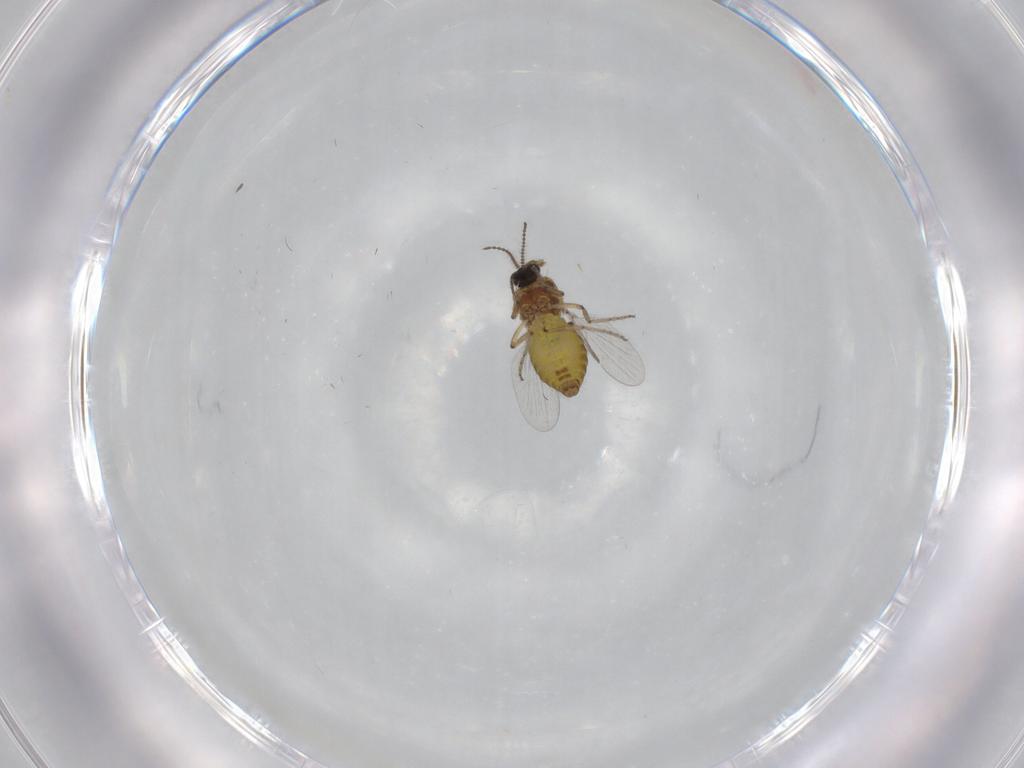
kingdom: Animalia
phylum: Arthropoda
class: Insecta
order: Diptera
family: Ceratopogonidae
